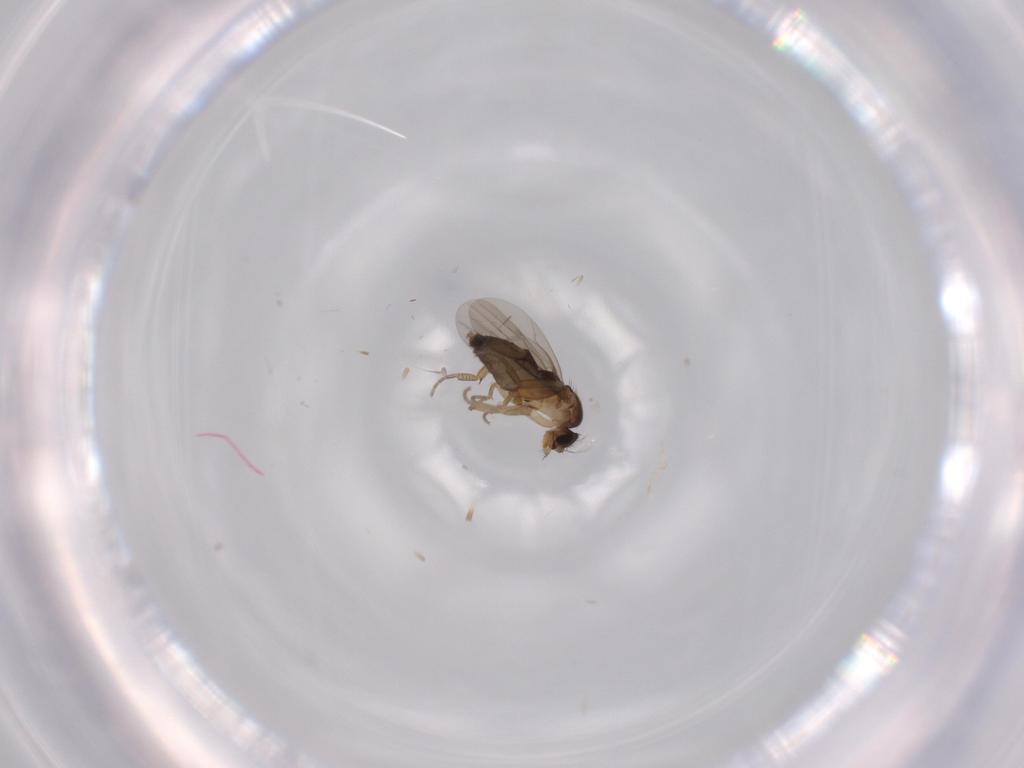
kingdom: Animalia
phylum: Arthropoda
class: Insecta
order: Diptera
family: Phoridae
